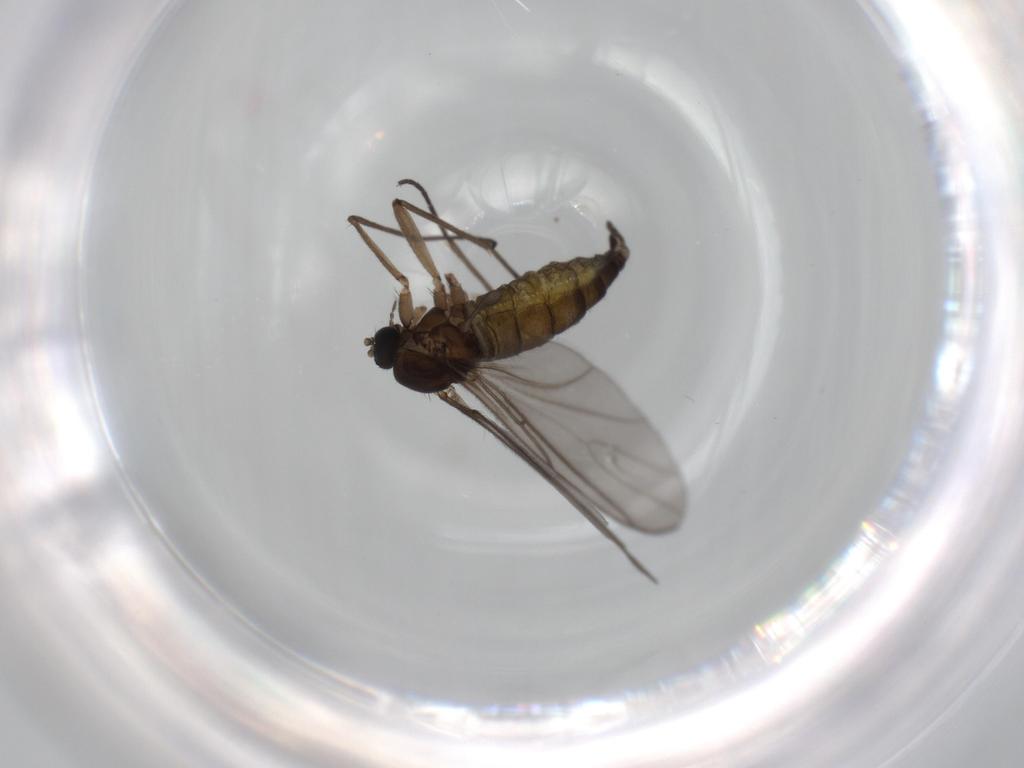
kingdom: Animalia
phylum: Arthropoda
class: Insecta
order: Diptera
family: Sciaridae
